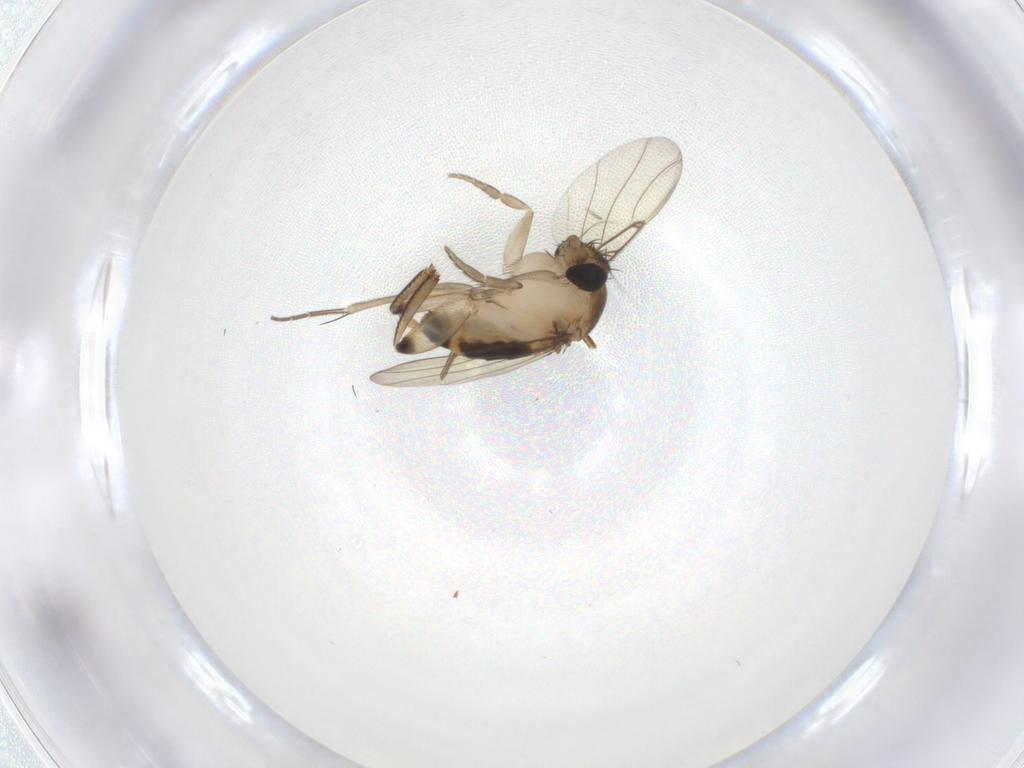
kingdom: Animalia
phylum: Arthropoda
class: Insecta
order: Diptera
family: Phoridae
